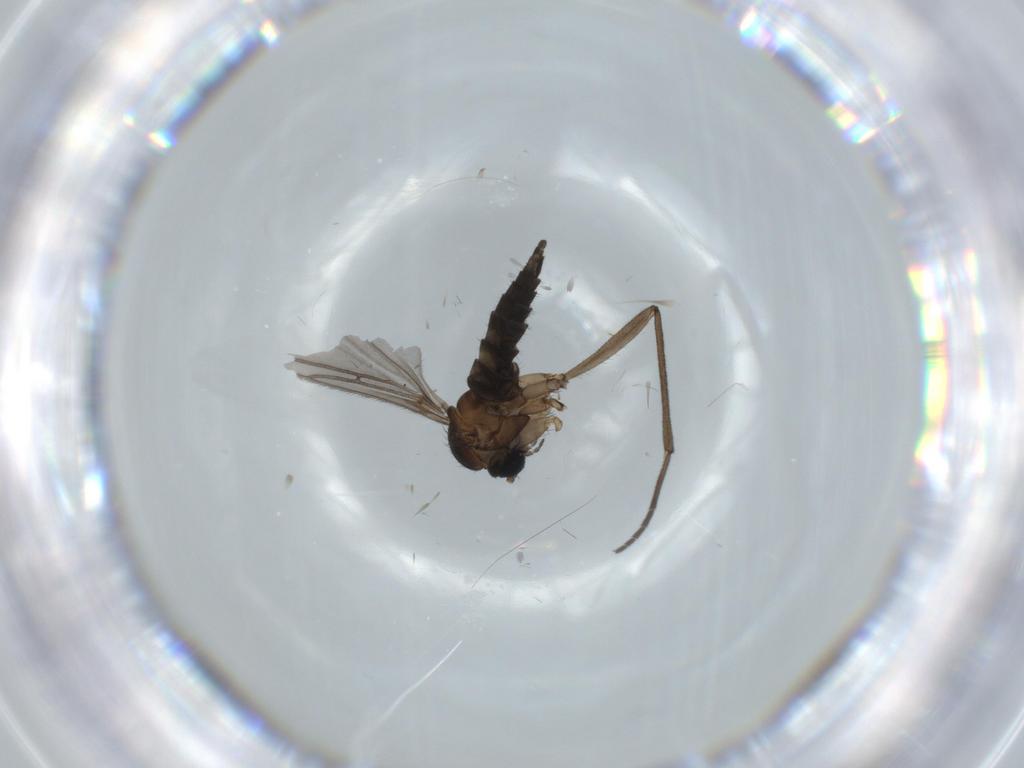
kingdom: Animalia
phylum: Arthropoda
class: Insecta
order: Diptera
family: Sciaridae
